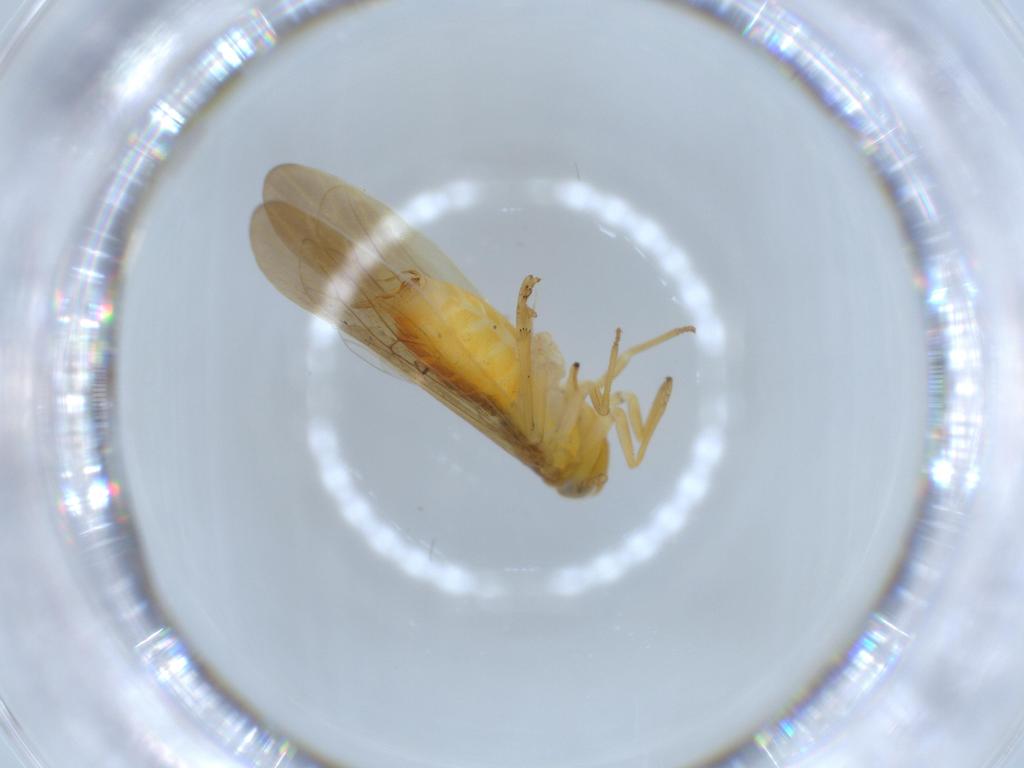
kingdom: Animalia
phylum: Arthropoda
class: Insecta
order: Hemiptera
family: Delphacidae
